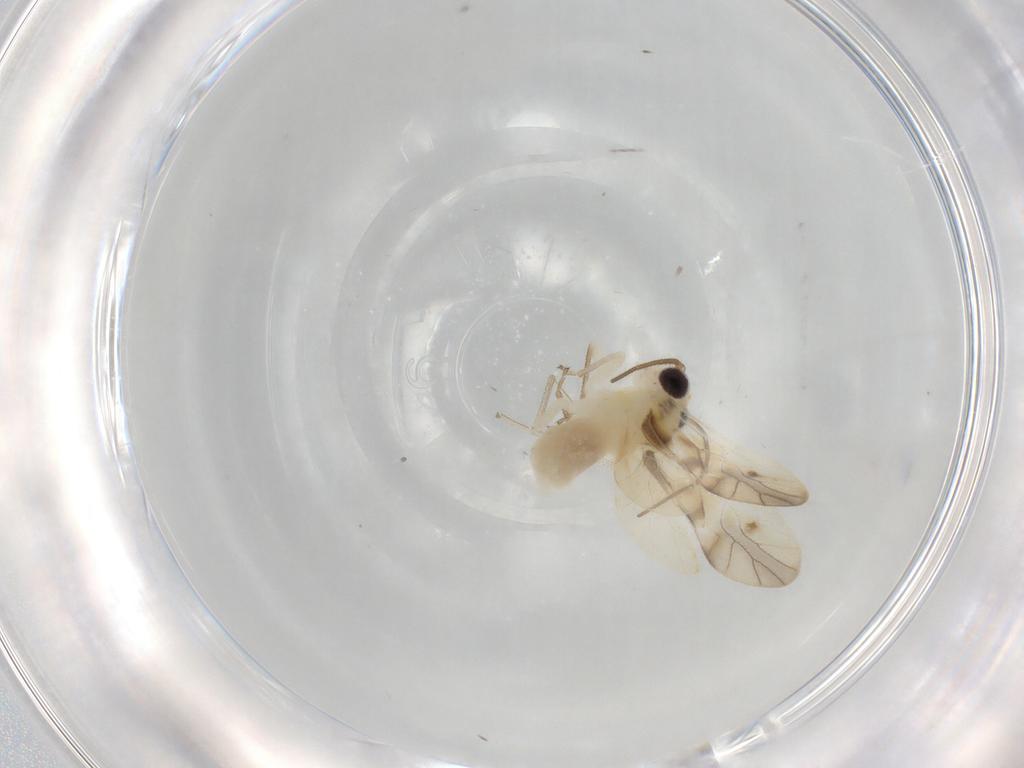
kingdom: Animalia
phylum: Arthropoda
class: Insecta
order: Psocodea
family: Caeciliusidae
